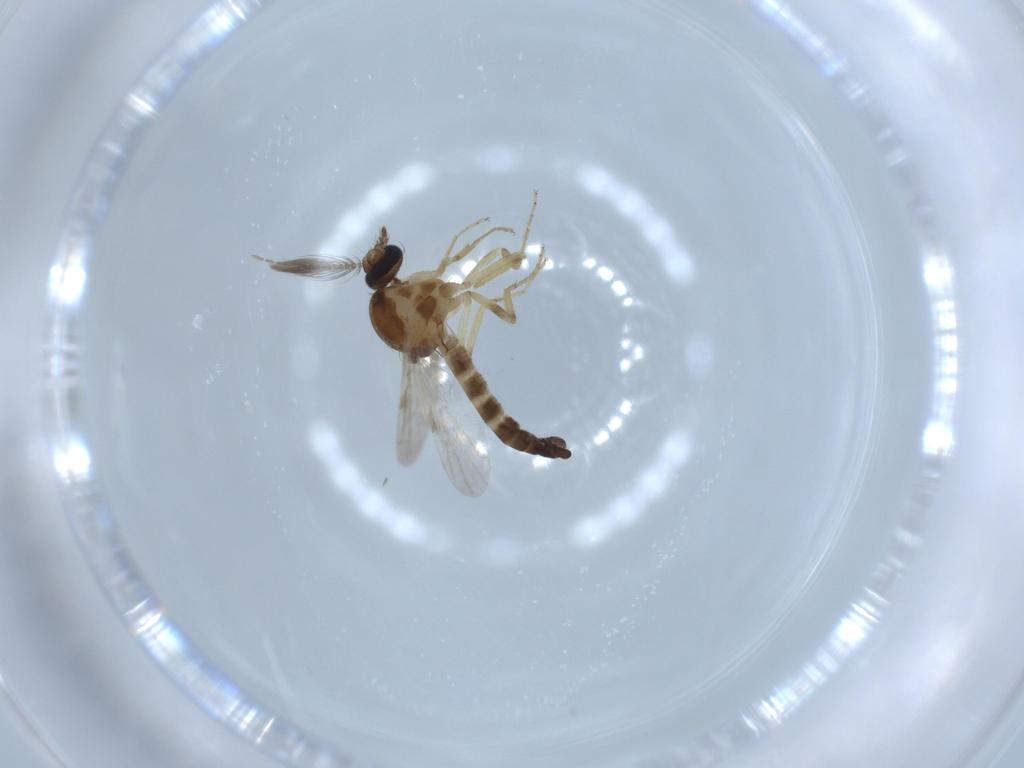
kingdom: Animalia
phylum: Arthropoda
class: Insecta
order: Diptera
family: Ceratopogonidae
